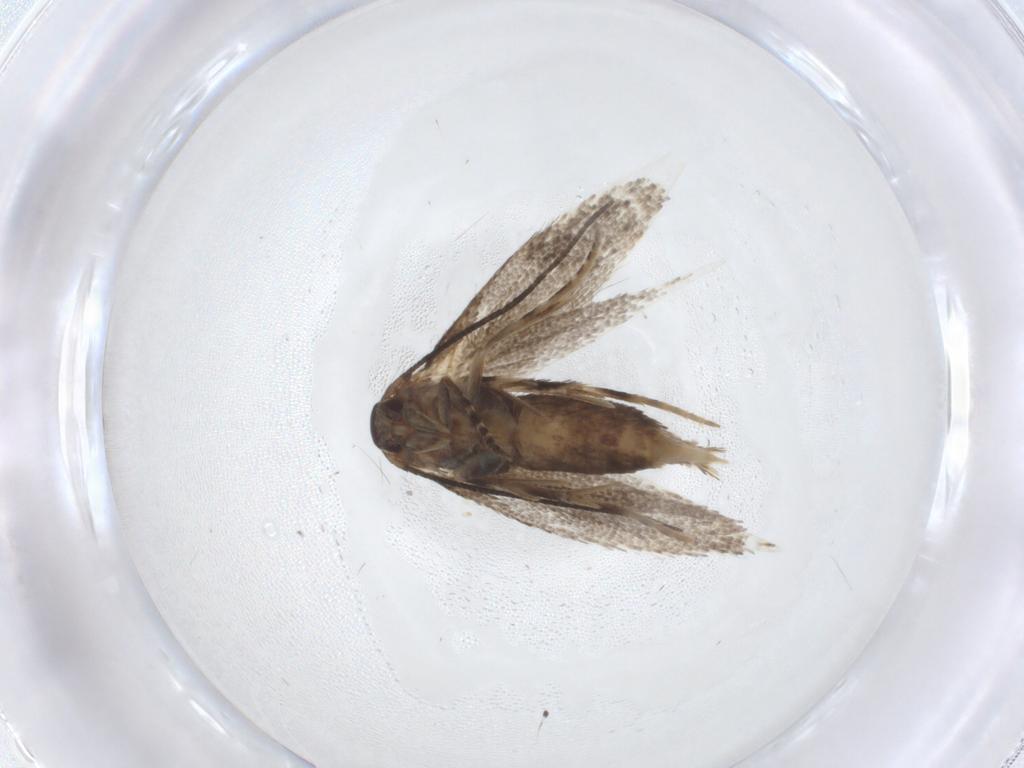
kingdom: Animalia
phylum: Arthropoda
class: Insecta
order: Lepidoptera
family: Elachistidae
